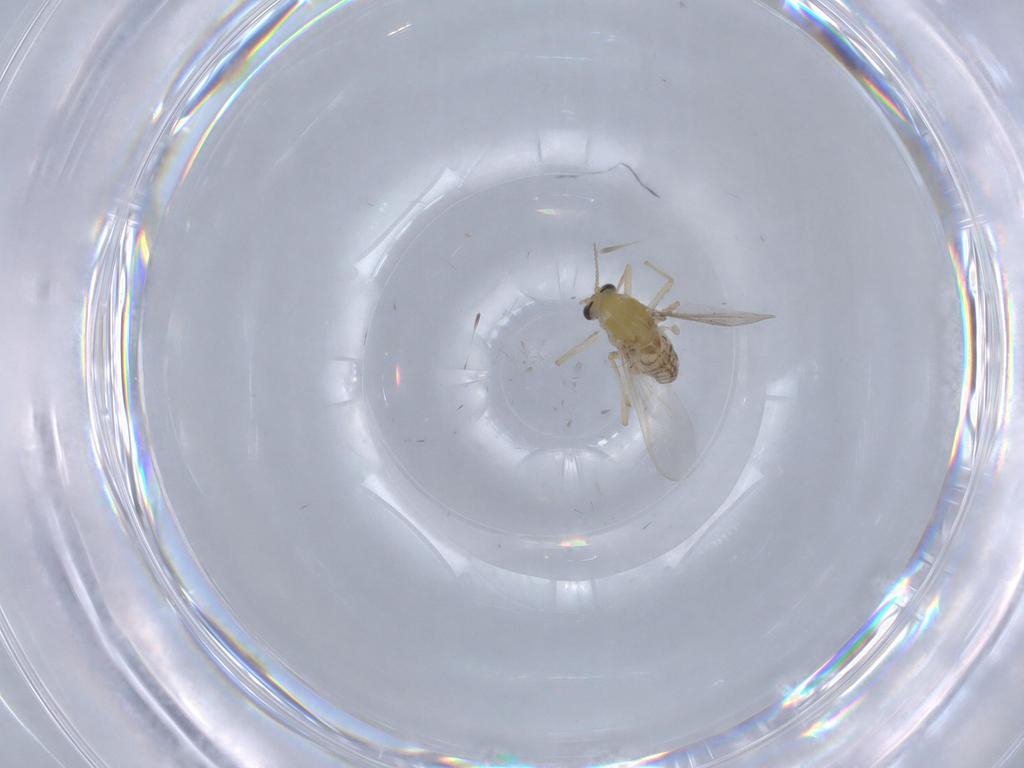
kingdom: Animalia
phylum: Arthropoda
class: Insecta
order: Diptera
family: Chironomidae
